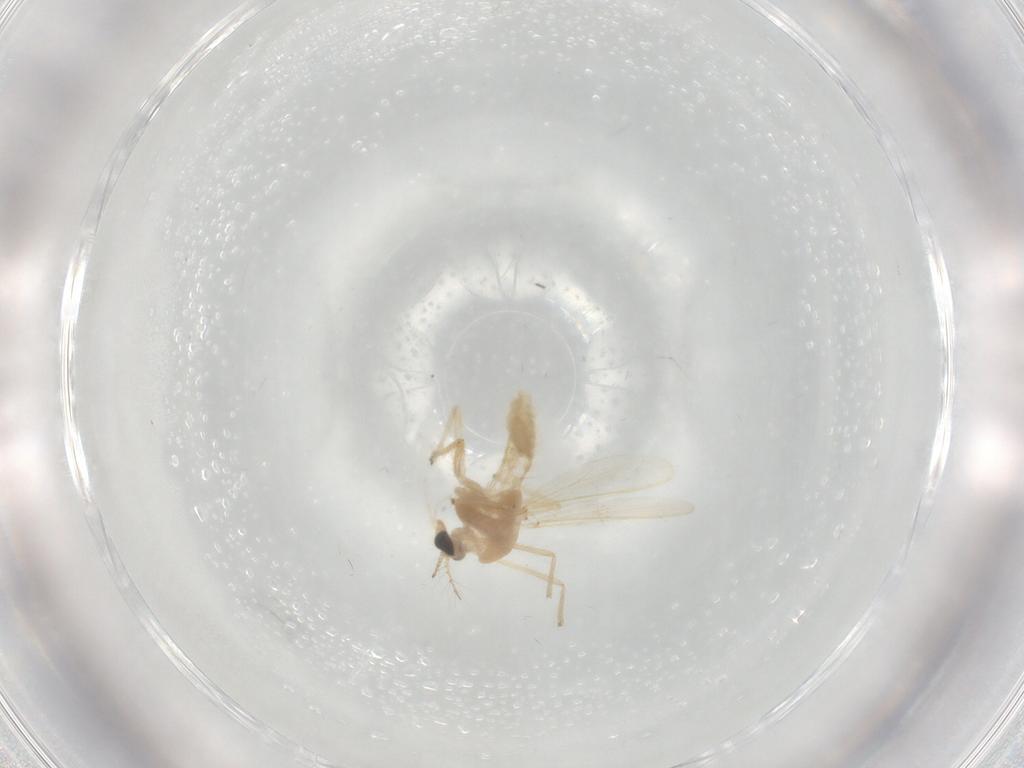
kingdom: Animalia
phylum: Arthropoda
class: Insecta
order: Diptera
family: Chironomidae
